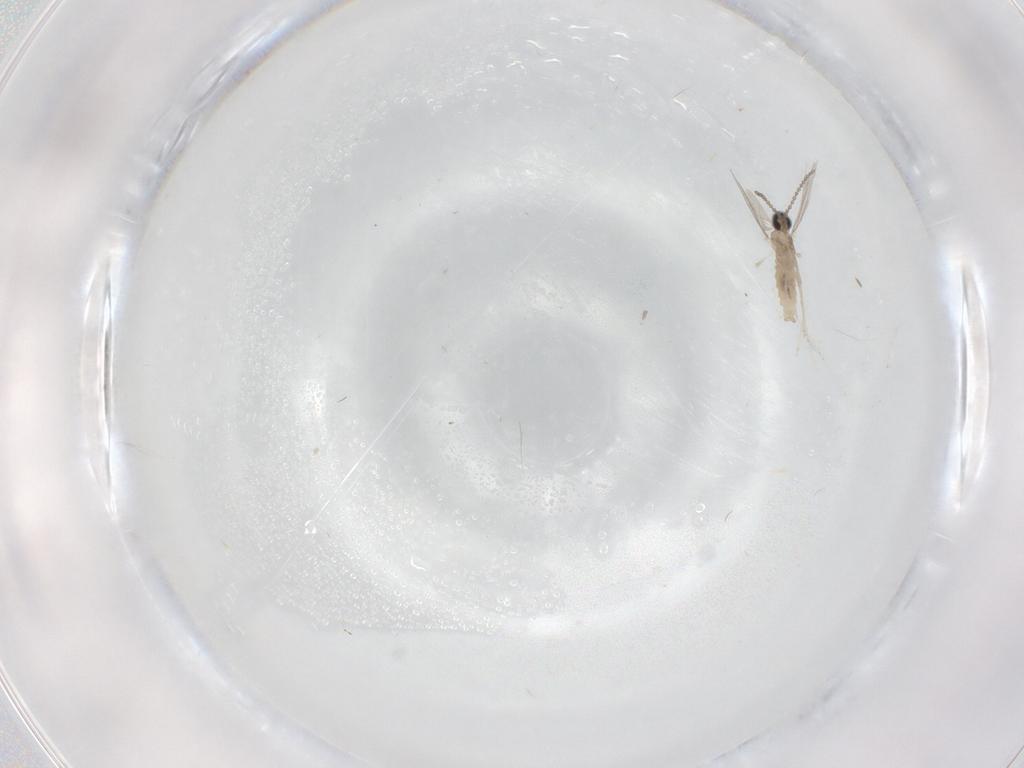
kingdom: Animalia
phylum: Arthropoda
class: Insecta
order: Diptera
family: Cecidomyiidae
